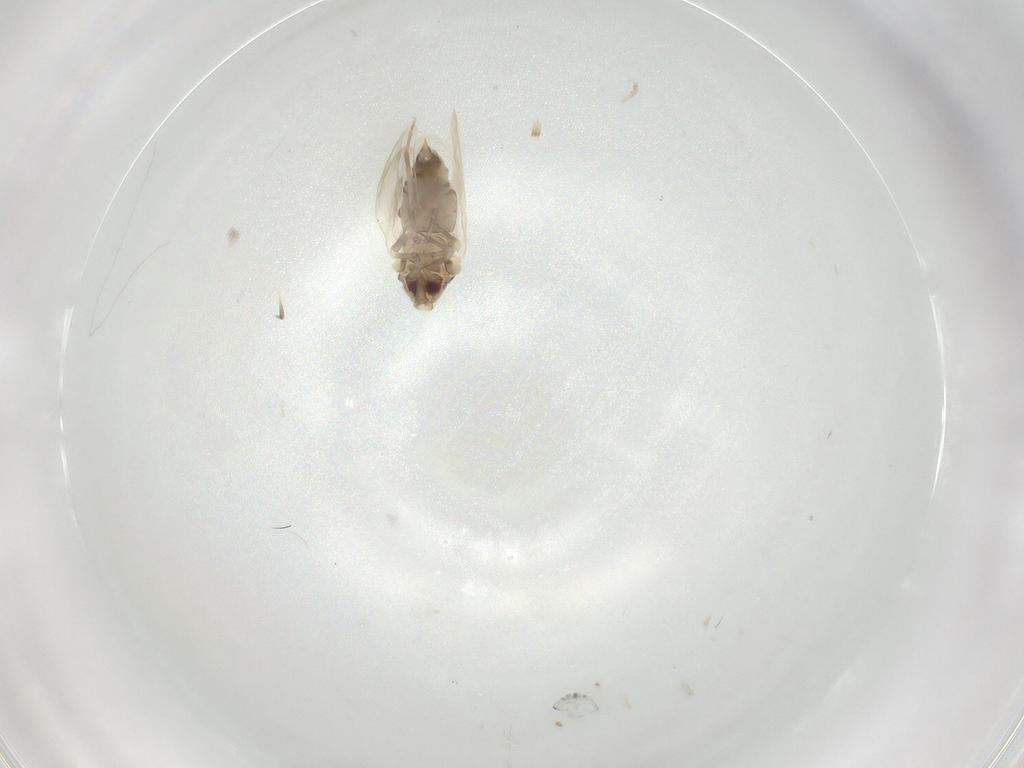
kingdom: Animalia
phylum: Arthropoda
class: Insecta
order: Hemiptera
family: Aleyrodidae
